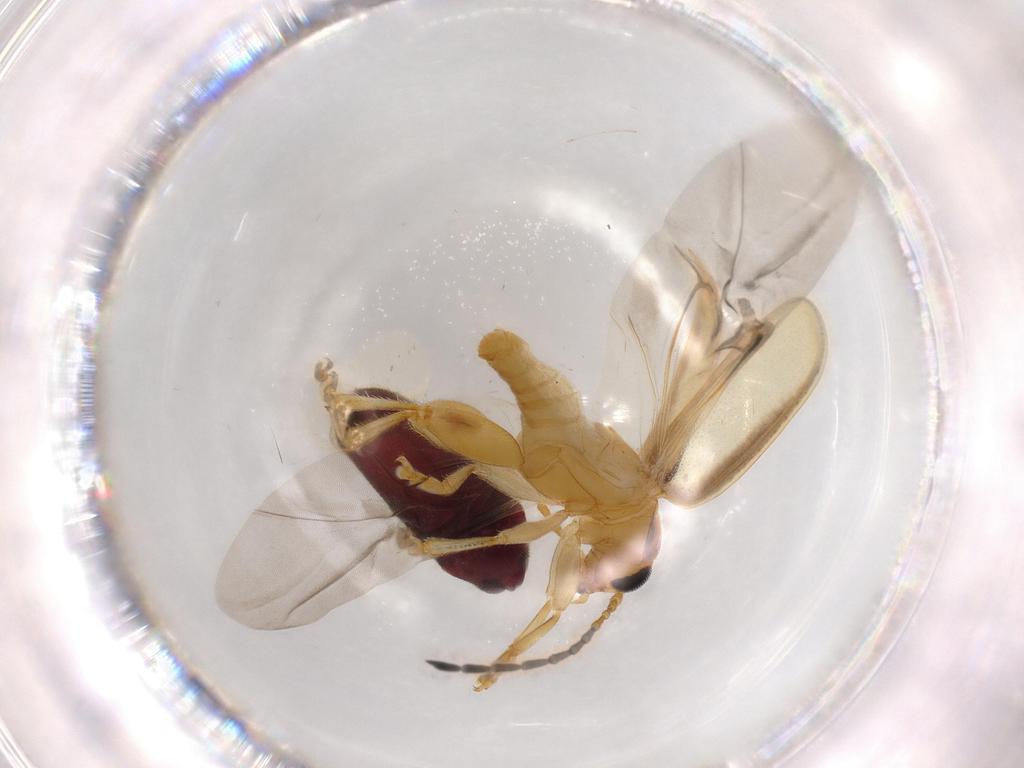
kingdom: Animalia
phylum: Arthropoda
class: Insecta
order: Coleoptera
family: Chrysomelidae
